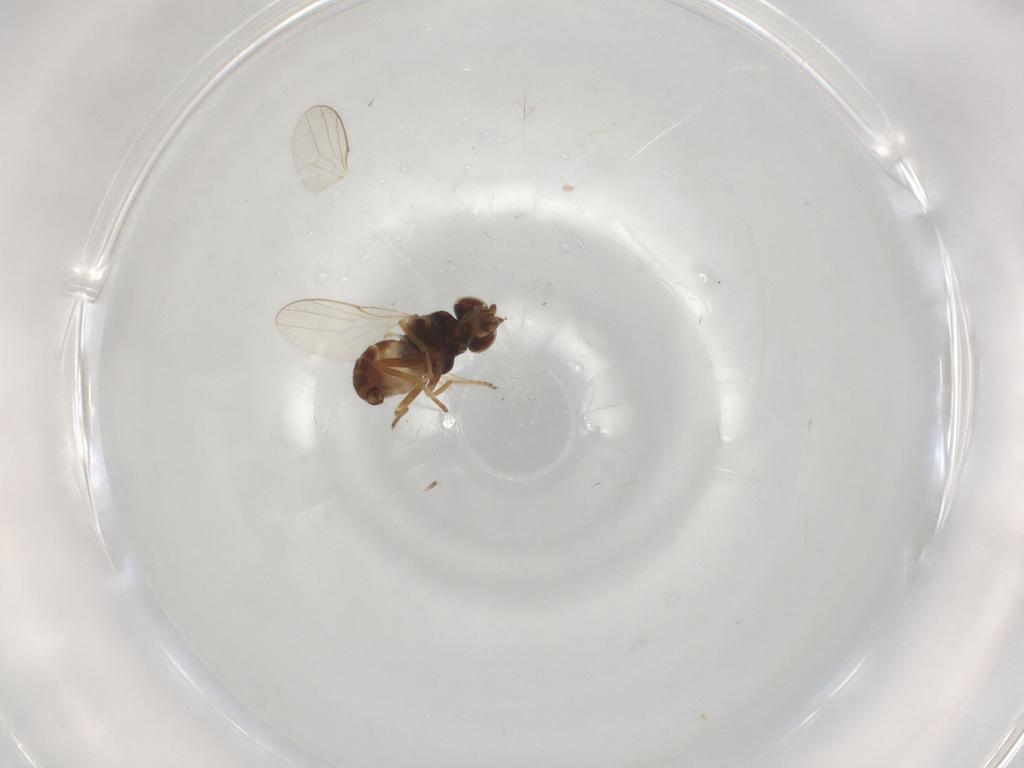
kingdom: Animalia
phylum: Arthropoda
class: Insecta
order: Diptera
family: Chloropidae
